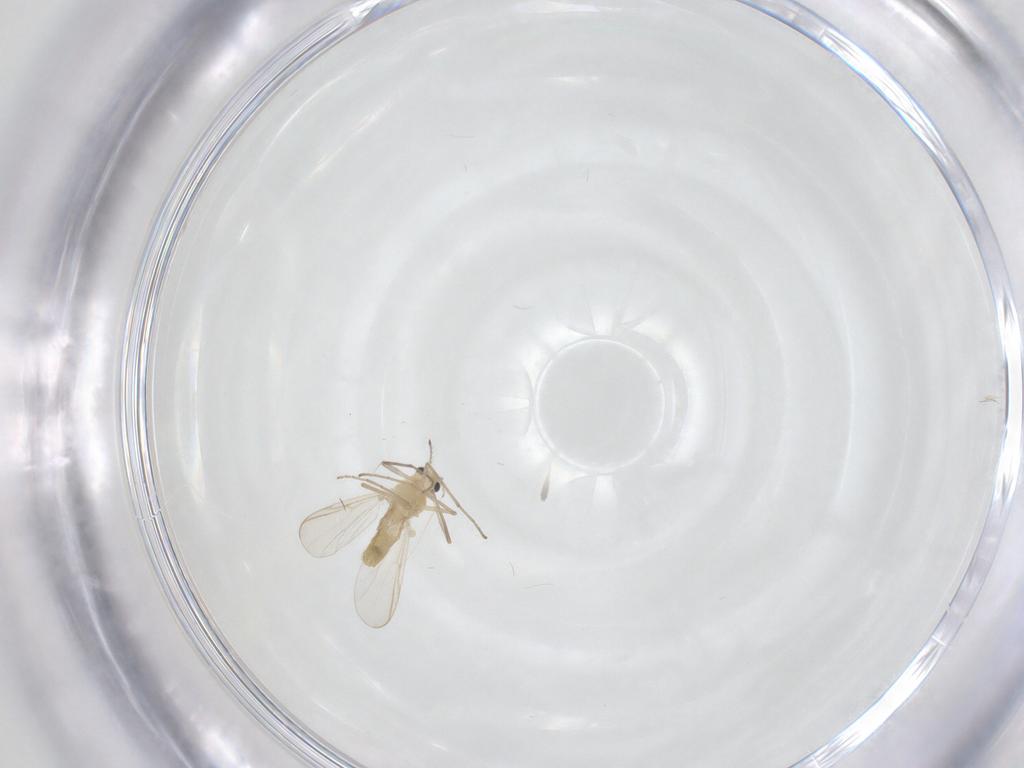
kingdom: Animalia
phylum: Arthropoda
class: Insecta
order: Diptera
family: Chironomidae
